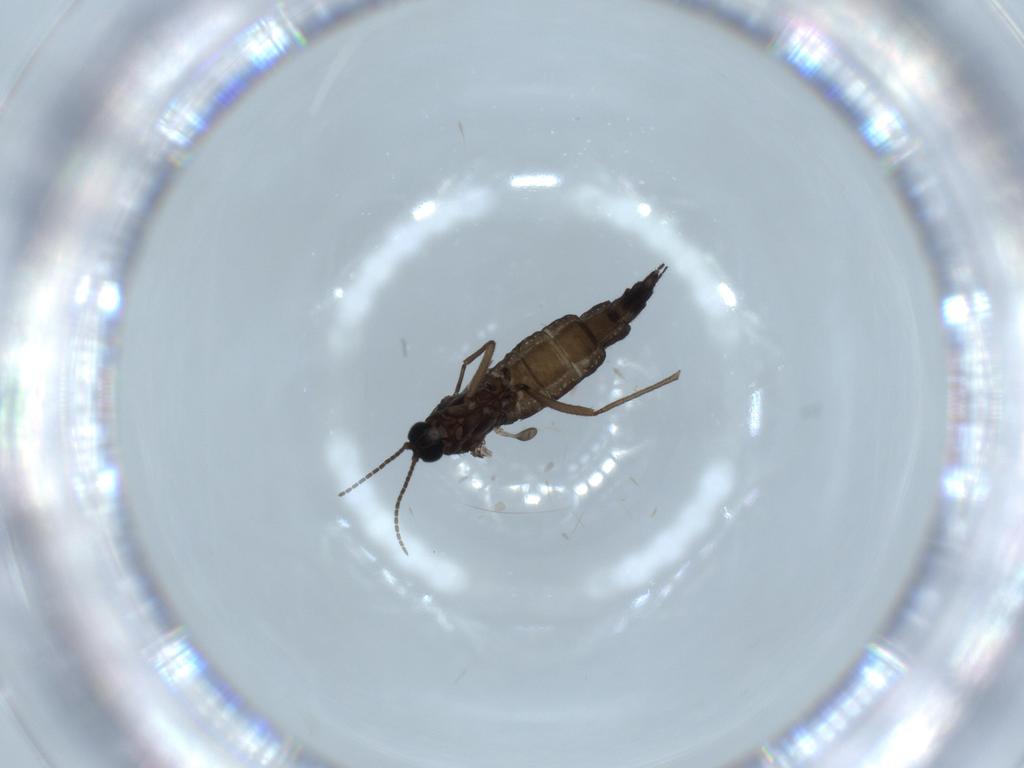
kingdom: Animalia
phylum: Arthropoda
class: Insecta
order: Diptera
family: Sciaridae
